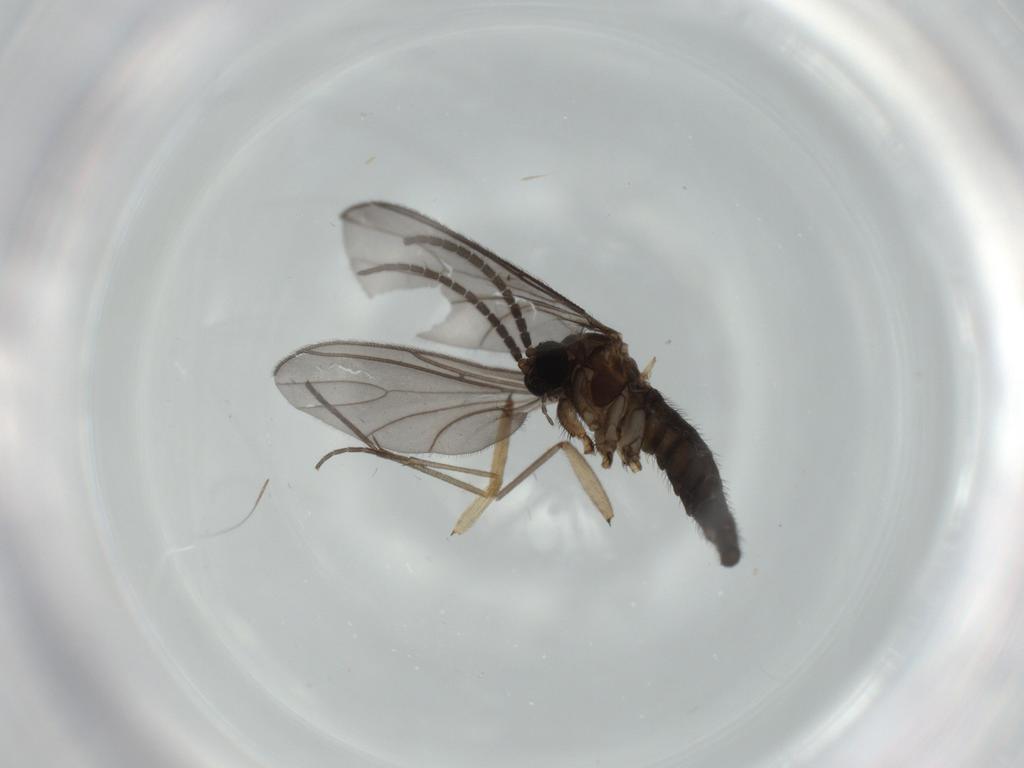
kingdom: Animalia
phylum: Arthropoda
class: Insecta
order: Diptera
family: Sciaridae
